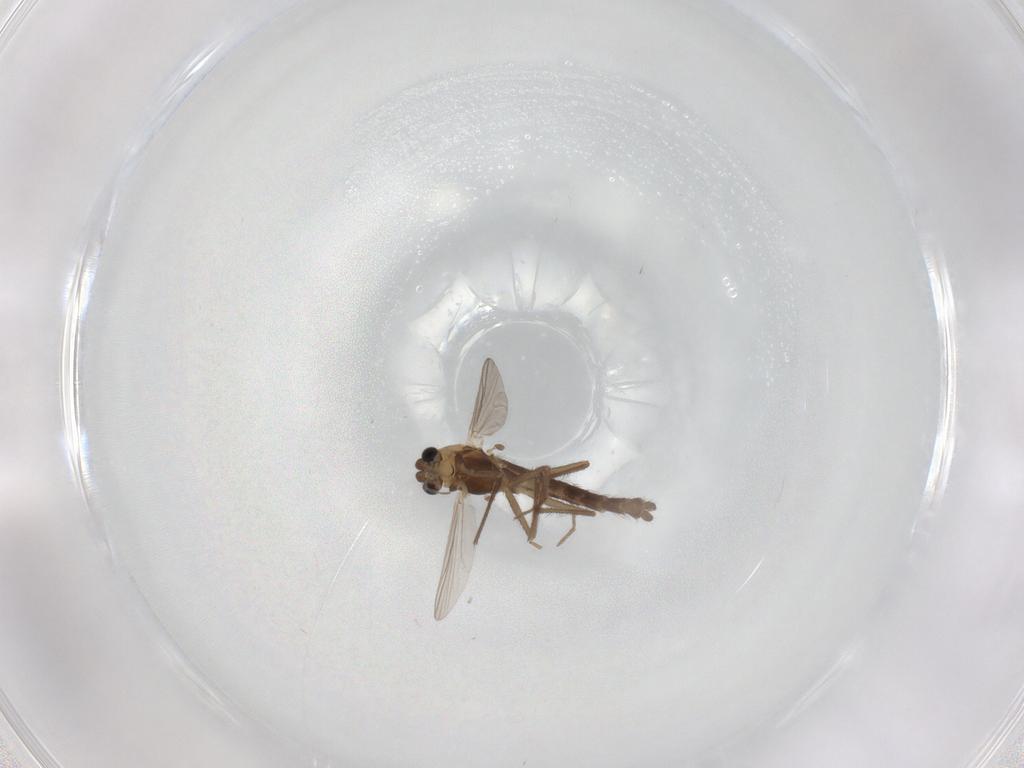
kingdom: Animalia
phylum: Arthropoda
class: Insecta
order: Diptera
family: Chironomidae
